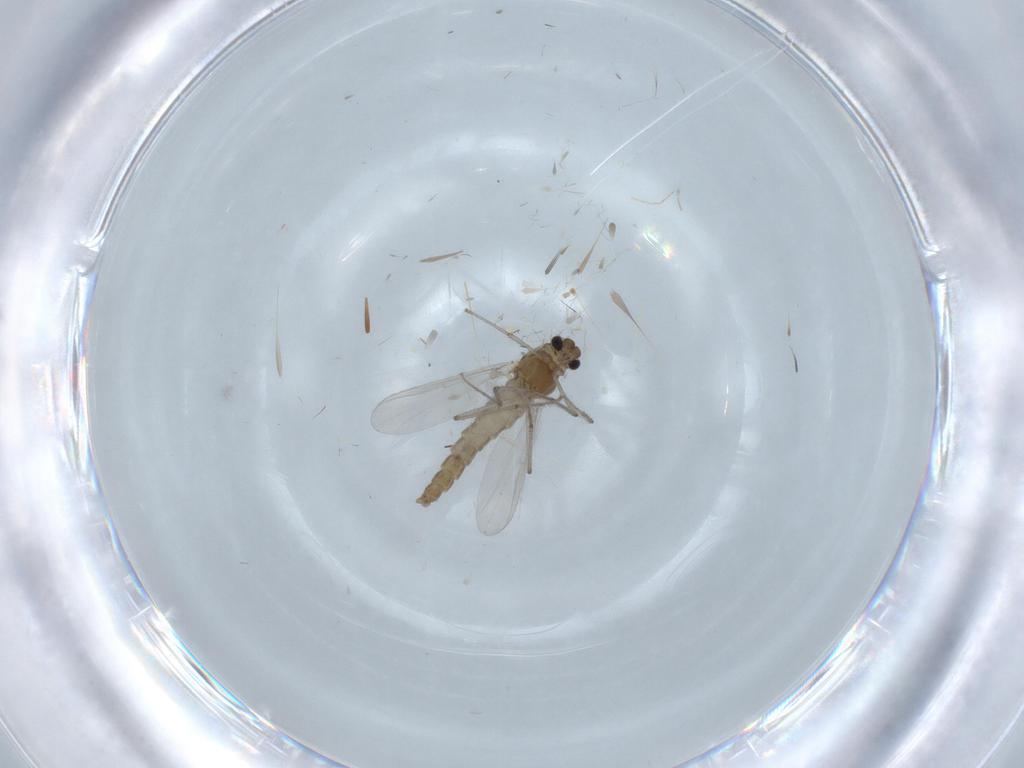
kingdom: Animalia
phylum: Arthropoda
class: Insecta
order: Diptera
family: Chironomidae
